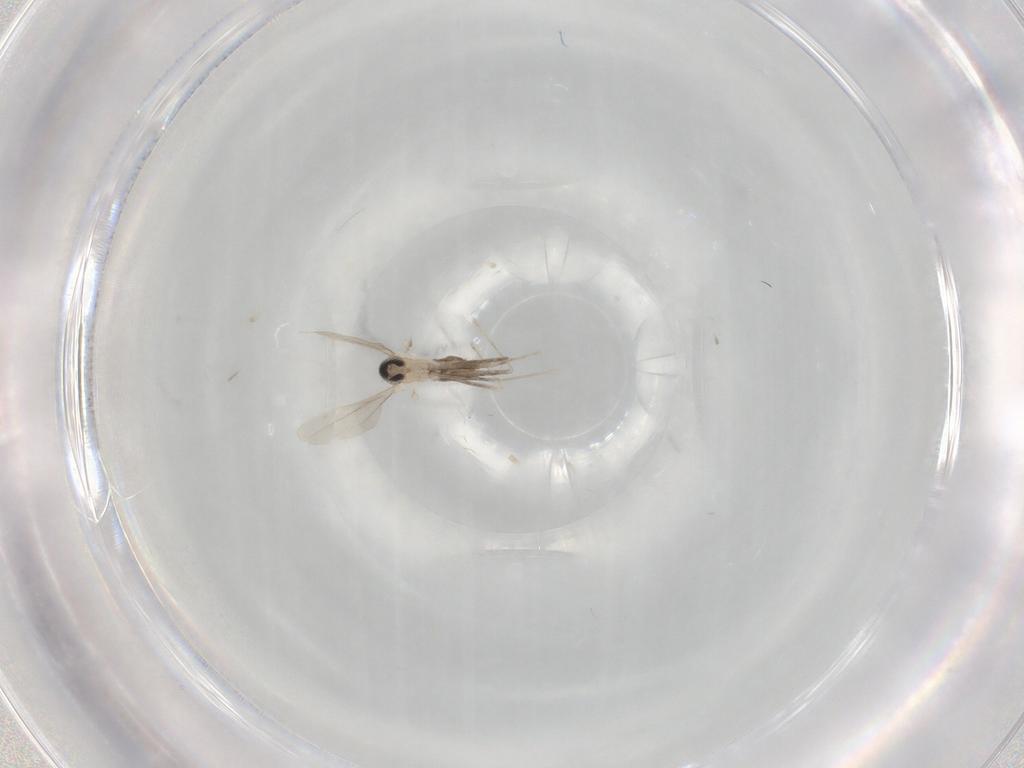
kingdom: Animalia
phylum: Arthropoda
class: Insecta
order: Diptera
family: Cecidomyiidae
